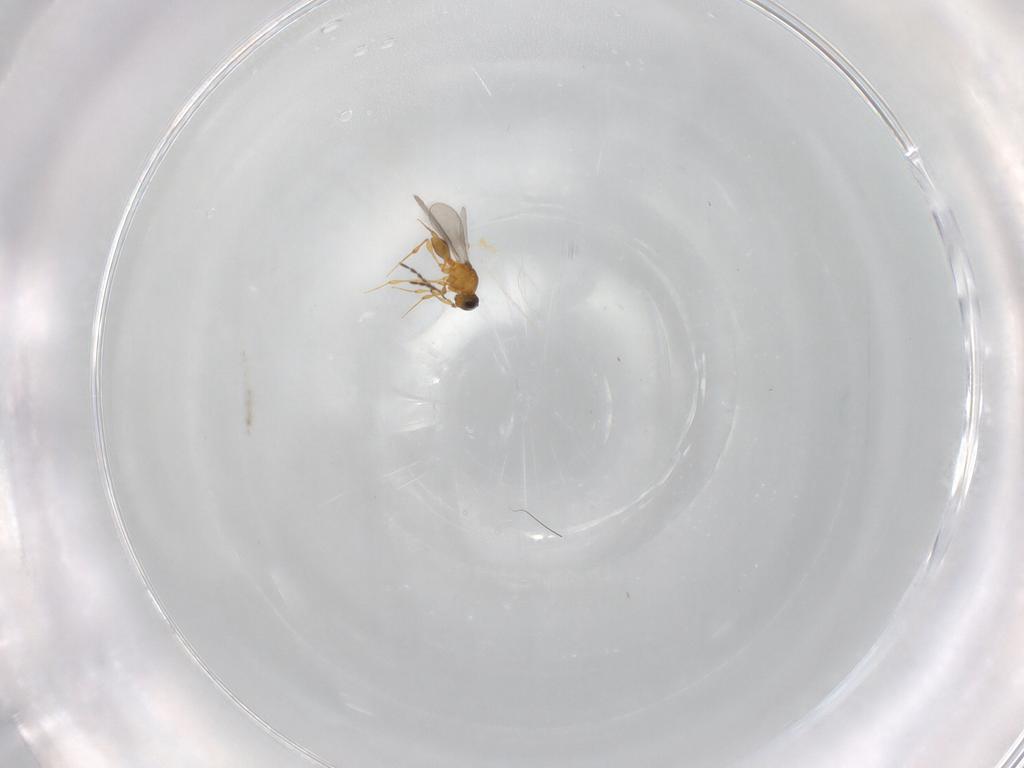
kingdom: Animalia
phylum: Arthropoda
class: Insecta
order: Hymenoptera
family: Platygastridae
